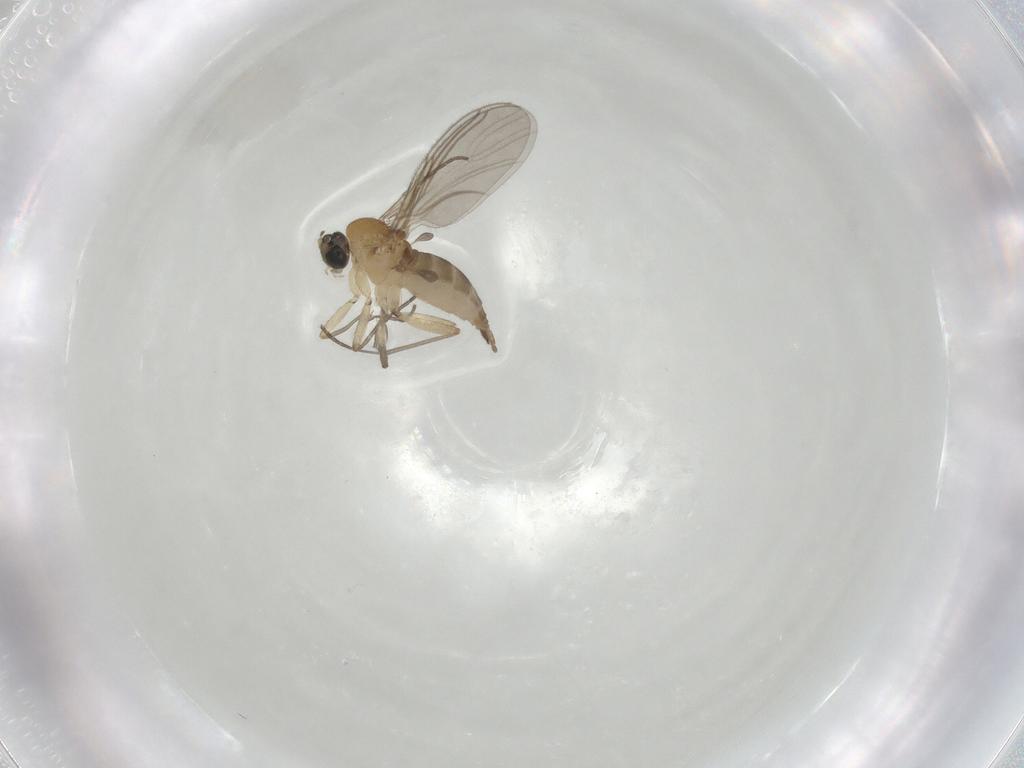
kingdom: Animalia
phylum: Arthropoda
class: Insecta
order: Diptera
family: Sciaridae
